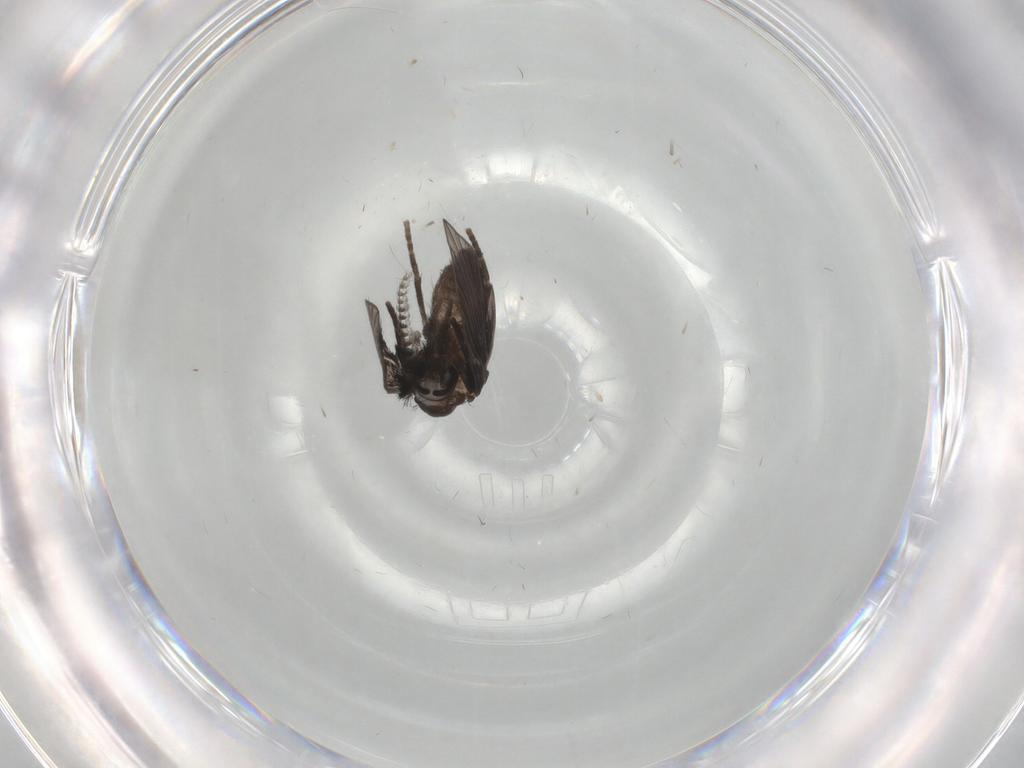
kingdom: Animalia
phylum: Arthropoda
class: Insecta
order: Diptera
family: Psychodidae
